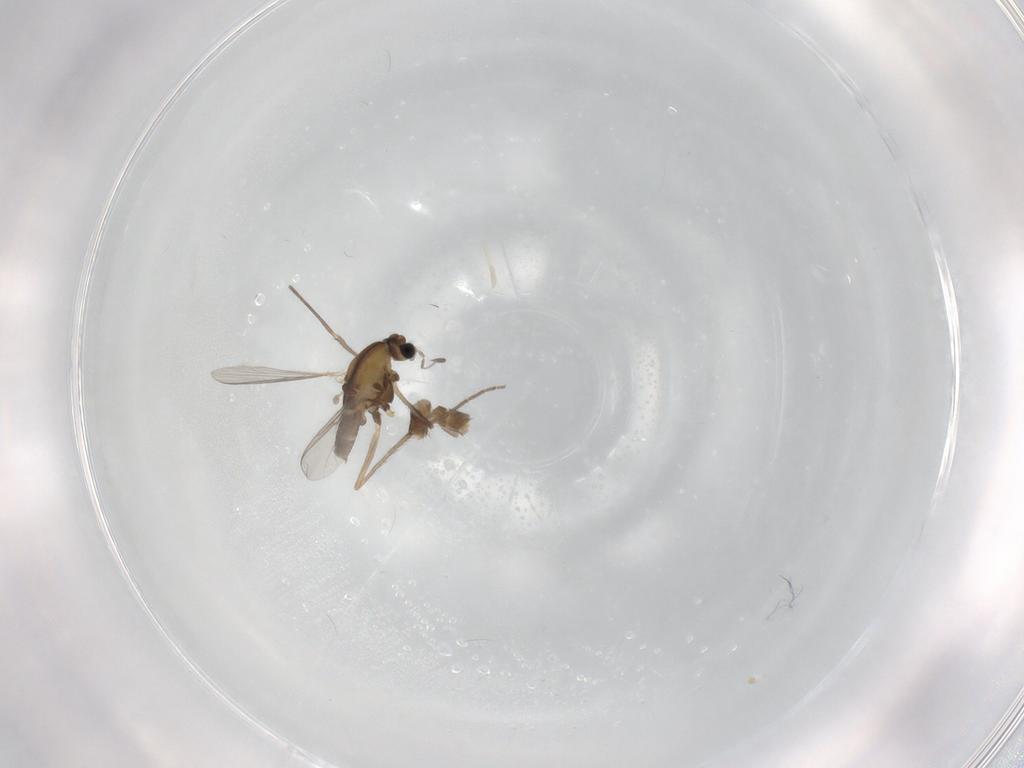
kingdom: Animalia
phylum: Arthropoda
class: Insecta
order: Diptera
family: Chironomidae
